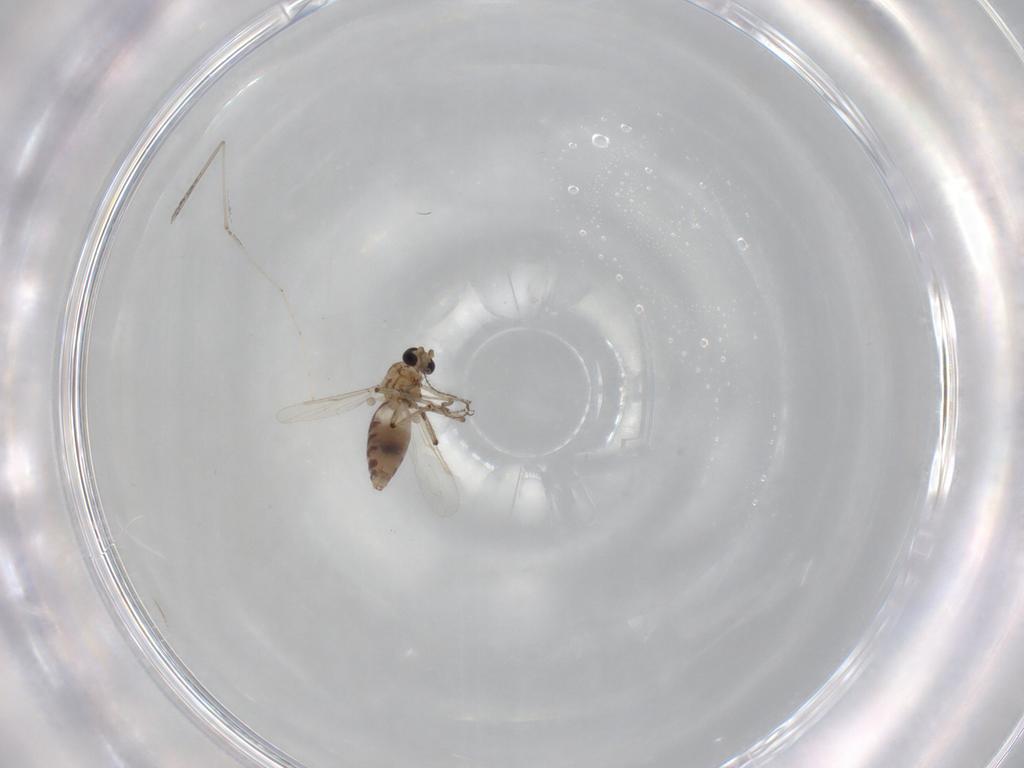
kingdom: Animalia
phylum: Arthropoda
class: Insecta
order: Diptera
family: Ceratopogonidae
